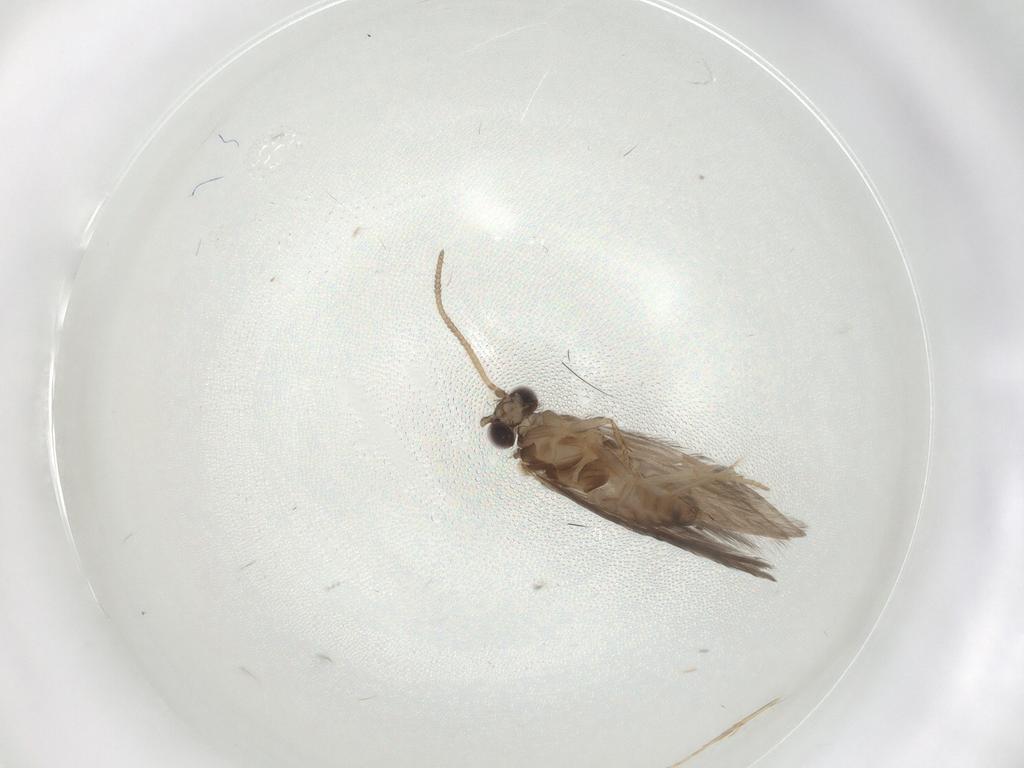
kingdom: Animalia
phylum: Arthropoda
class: Insecta
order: Trichoptera
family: Hydroptilidae
